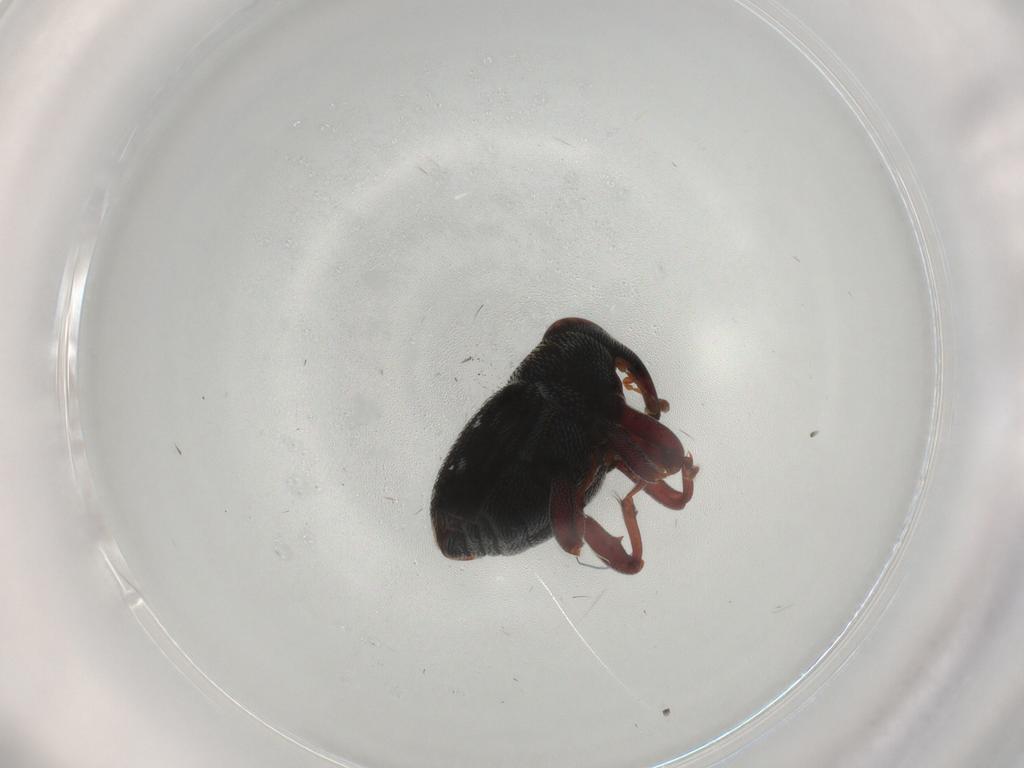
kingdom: Animalia
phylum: Arthropoda
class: Insecta
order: Coleoptera
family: Curculionidae
